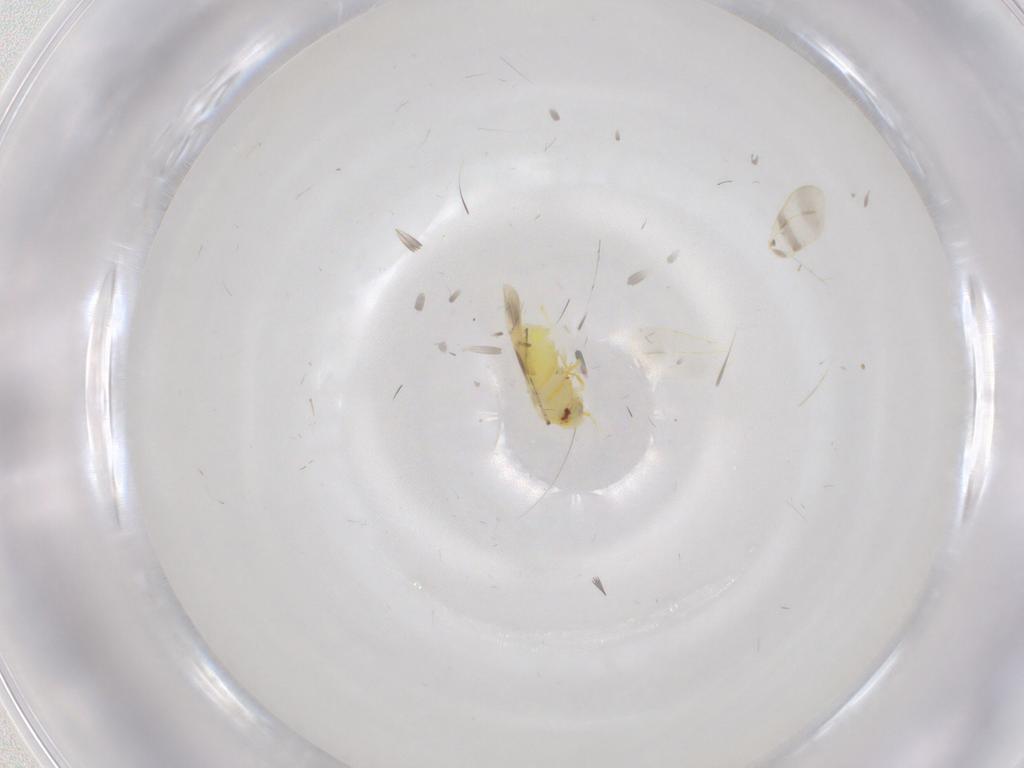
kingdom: Animalia
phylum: Arthropoda
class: Insecta
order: Hemiptera
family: Aleyrodidae
